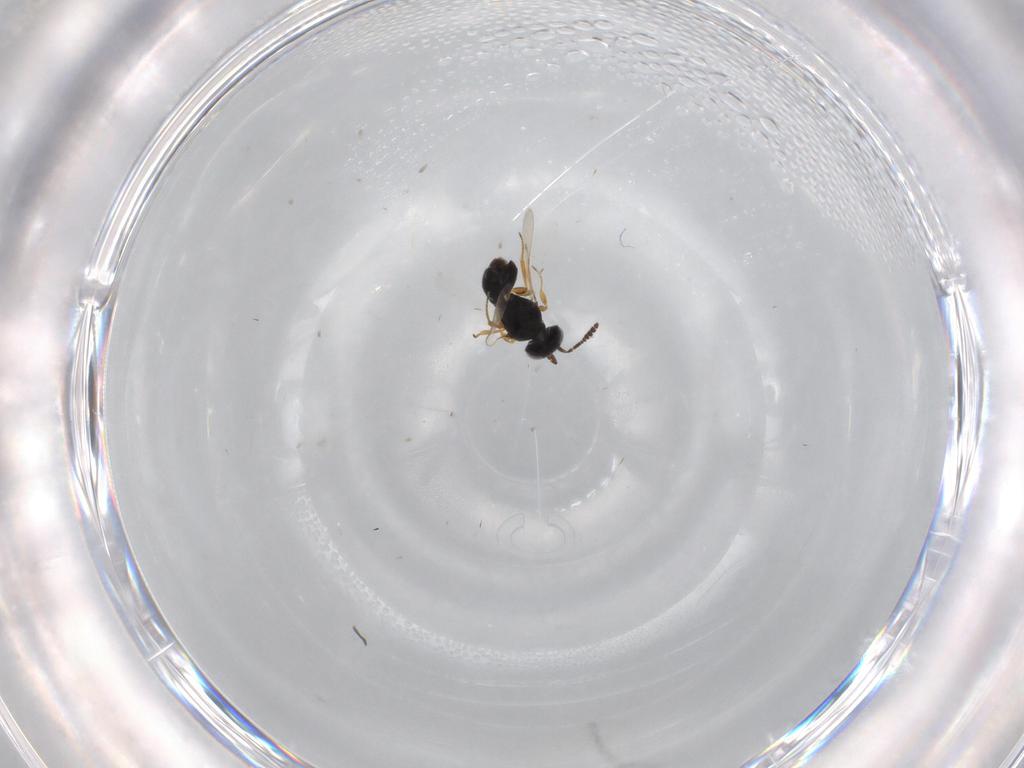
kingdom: Animalia
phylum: Arthropoda
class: Insecta
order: Hymenoptera
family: Scelionidae
